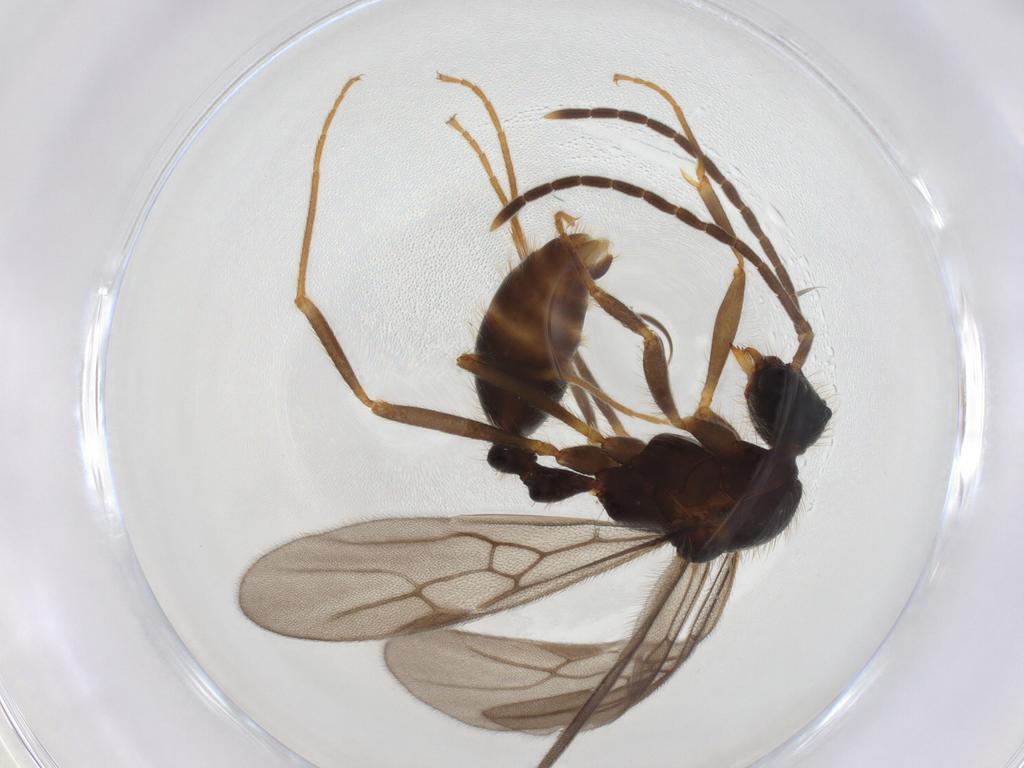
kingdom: Animalia
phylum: Arthropoda
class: Insecta
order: Hymenoptera
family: Formicidae
